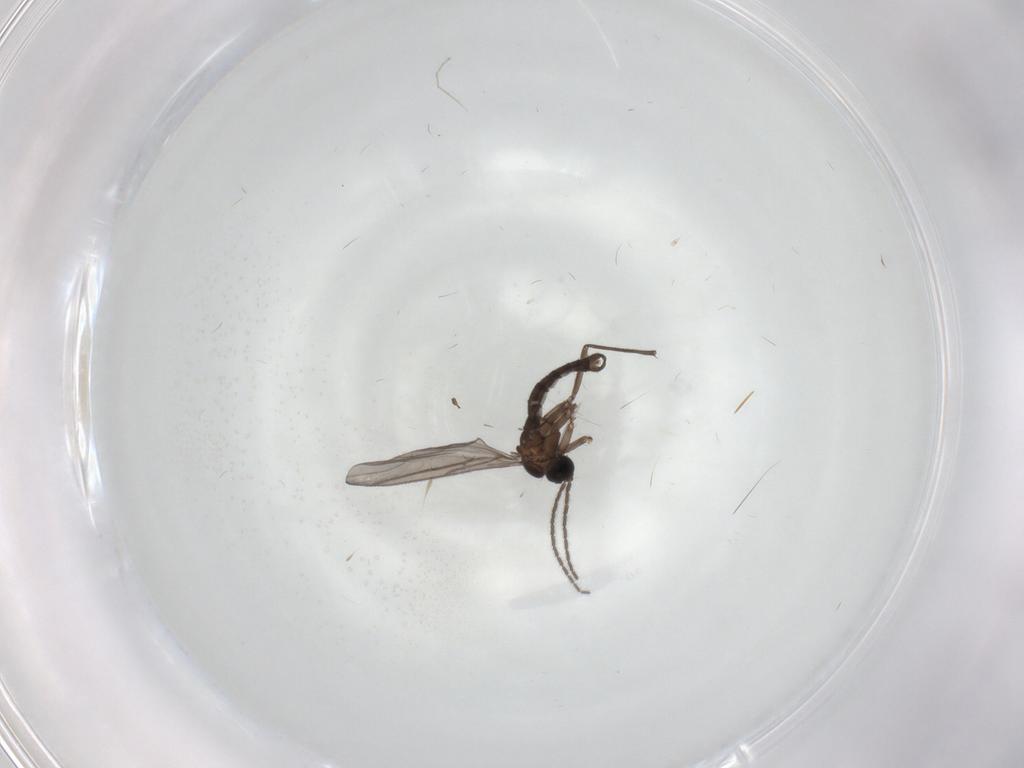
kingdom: Animalia
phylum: Arthropoda
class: Insecta
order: Diptera
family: Sciaridae
